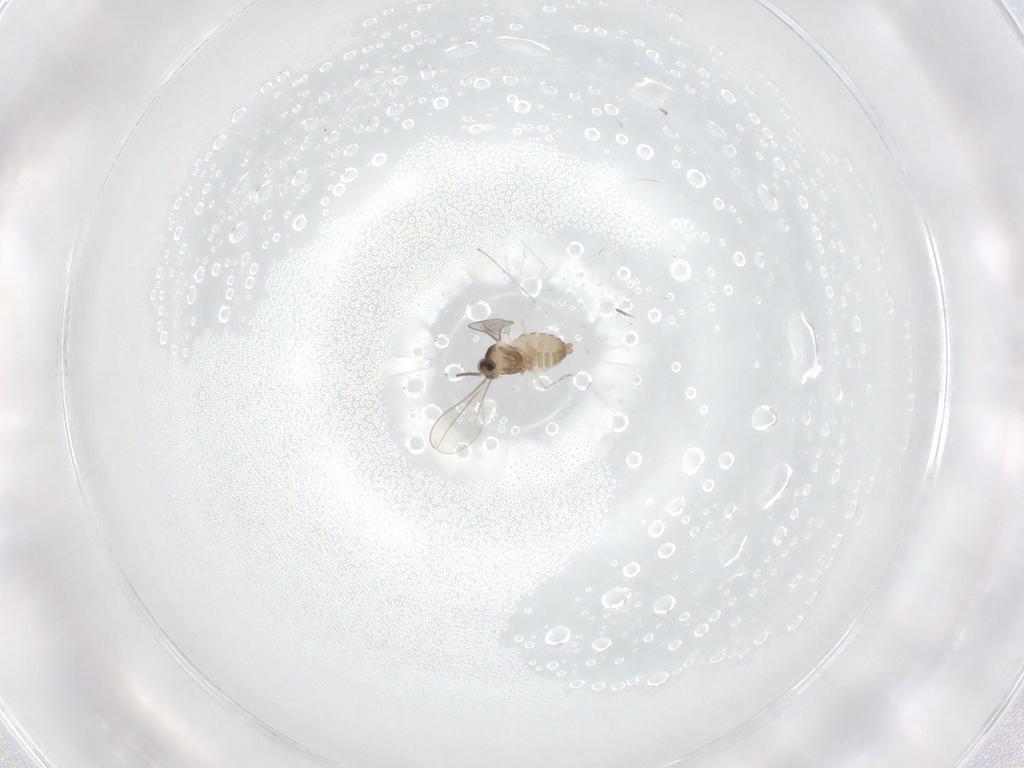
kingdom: Animalia
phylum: Arthropoda
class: Insecta
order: Diptera
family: Cecidomyiidae
